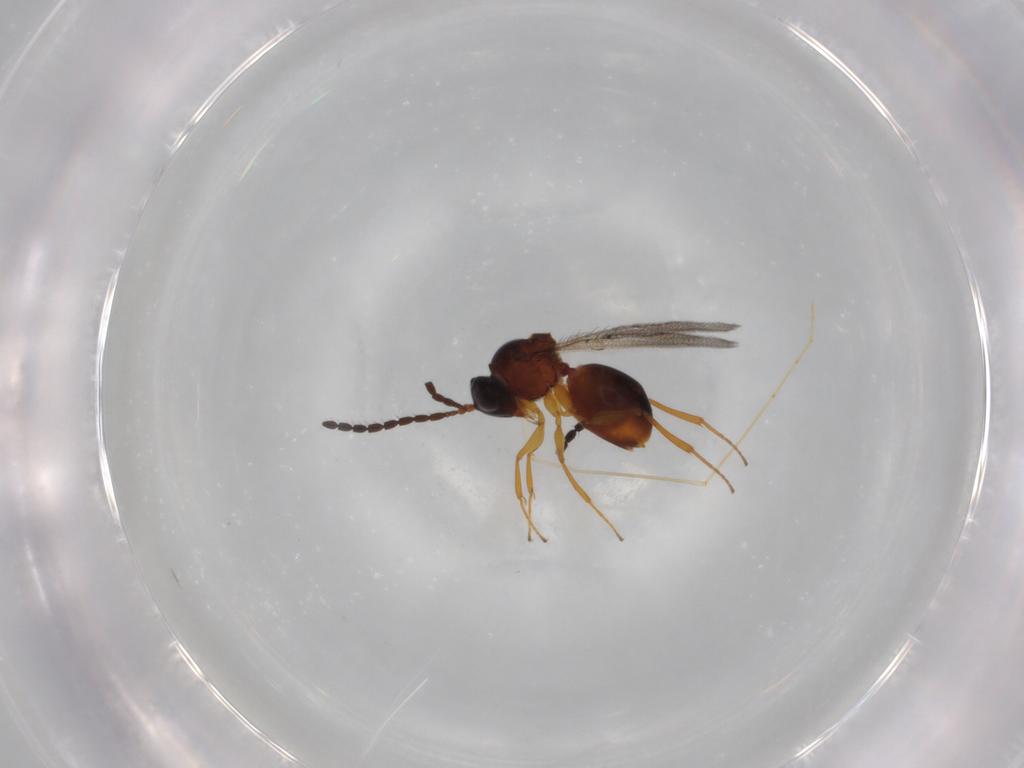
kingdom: Animalia
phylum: Arthropoda
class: Insecta
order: Hymenoptera
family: Figitidae
